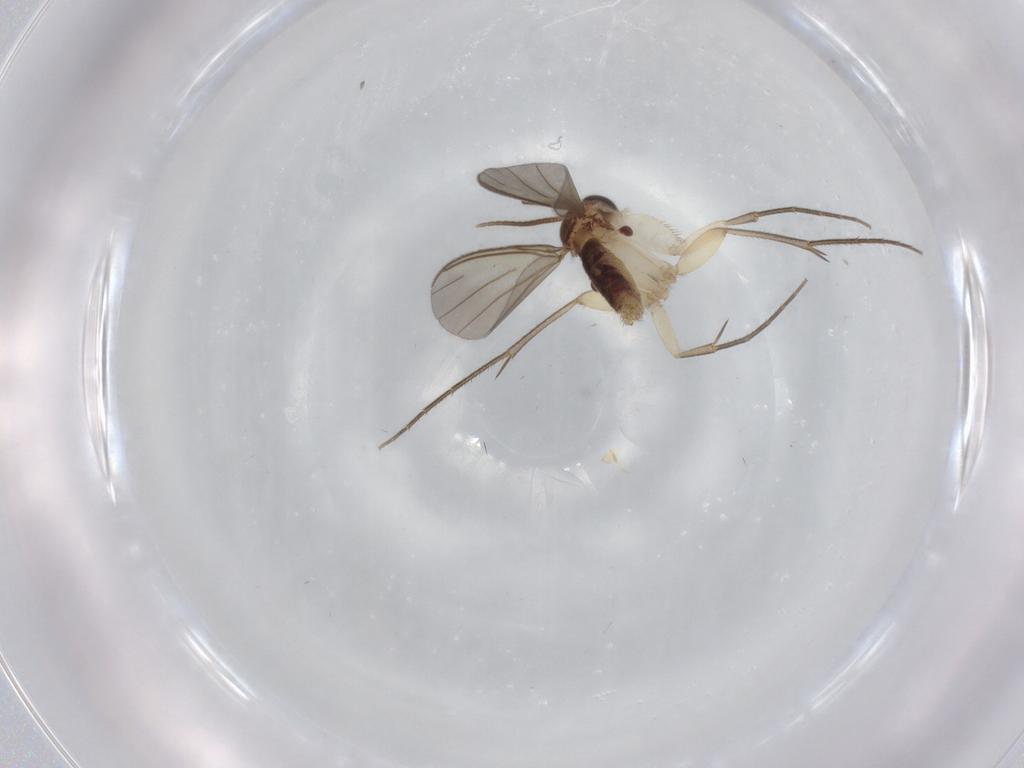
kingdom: Animalia
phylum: Arthropoda
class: Insecta
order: Diptera
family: Mycetophilidae
